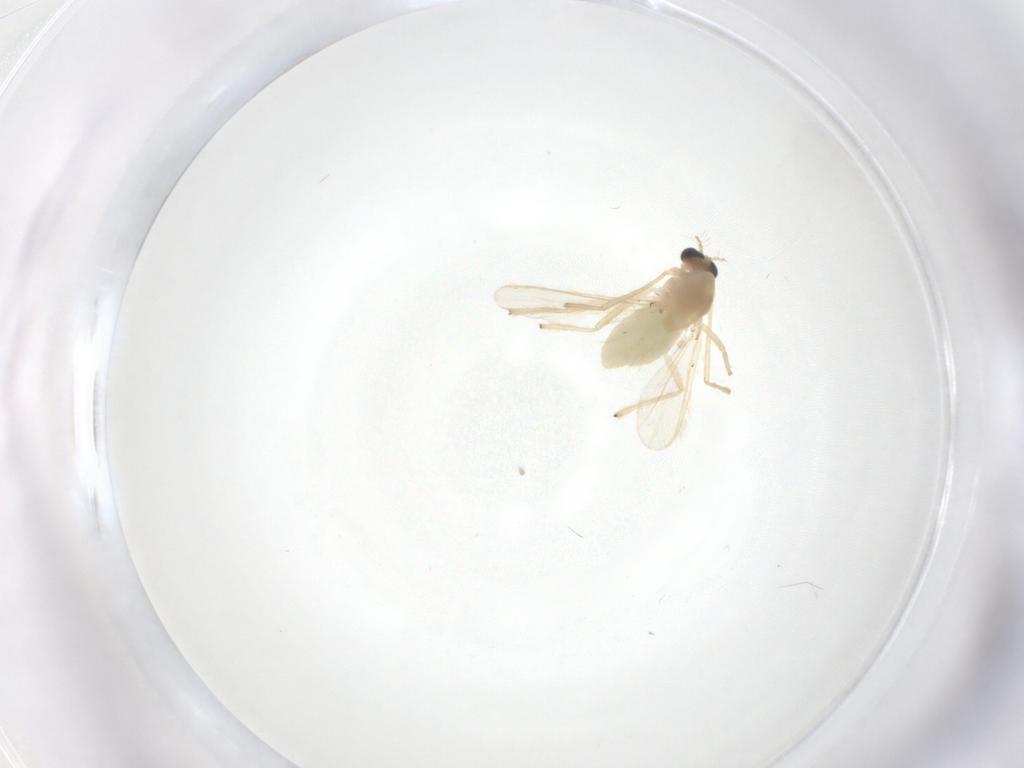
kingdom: Animalia
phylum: Arthropoda
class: Insecta
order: Diptera
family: Chironomidae
